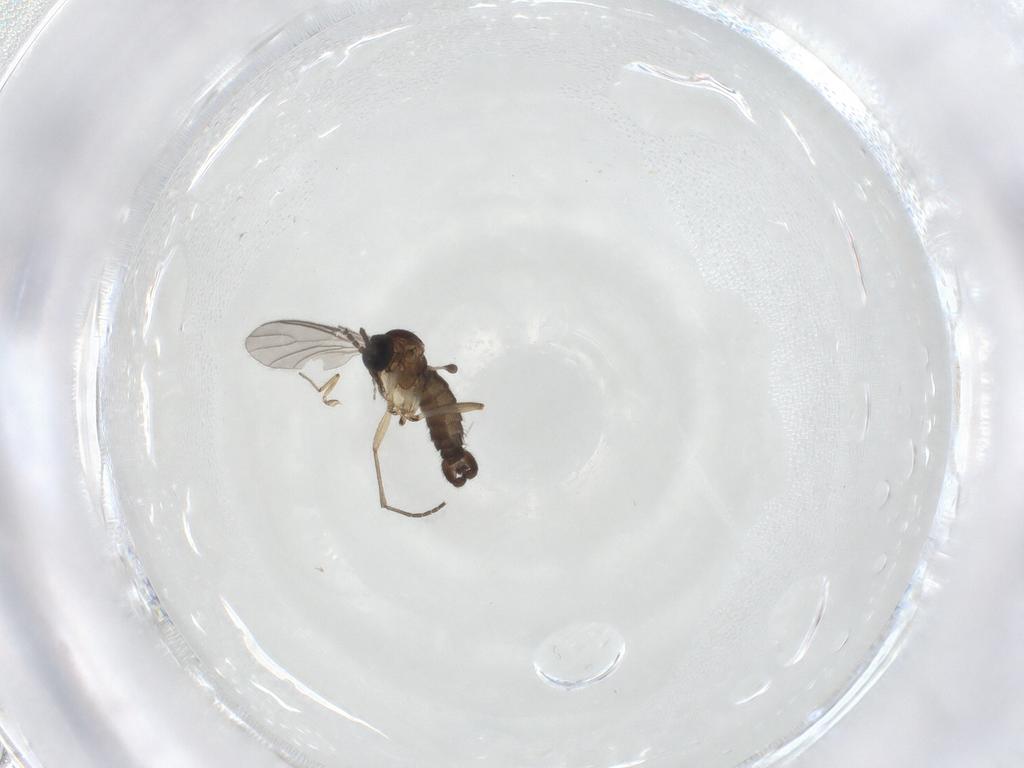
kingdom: Animalia
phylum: Arthropoda
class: Insecta
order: Diptera
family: Sciaridae
